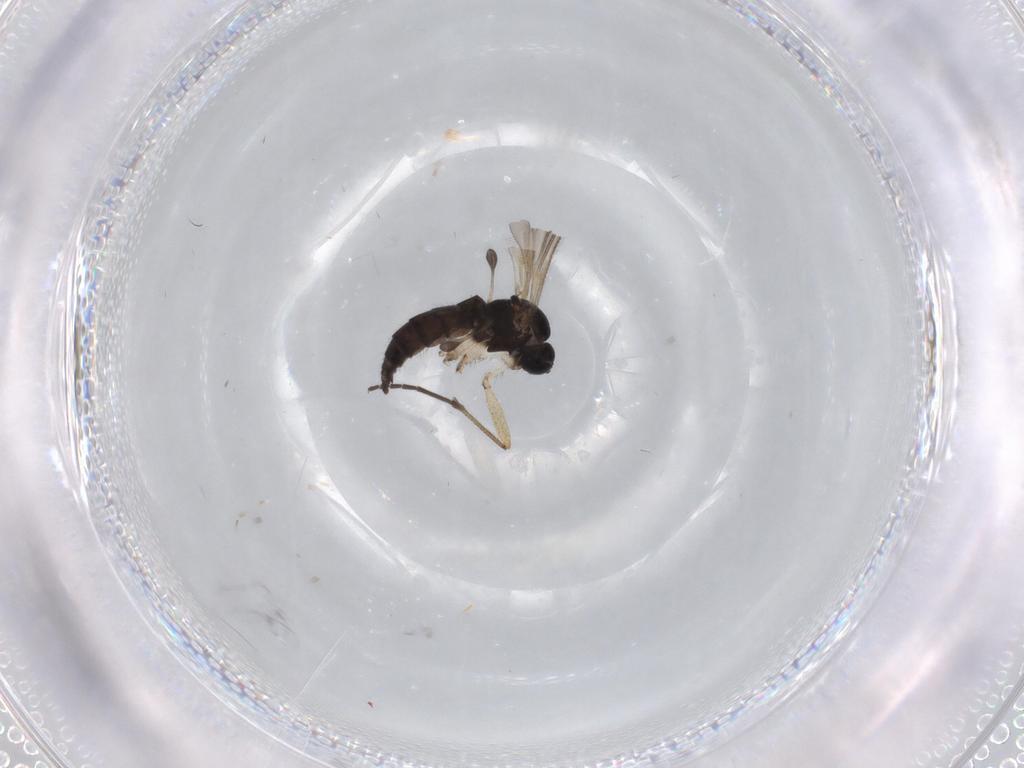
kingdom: Animalia
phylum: Arthropoda
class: Insecta
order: Diptera
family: Sciaridae
